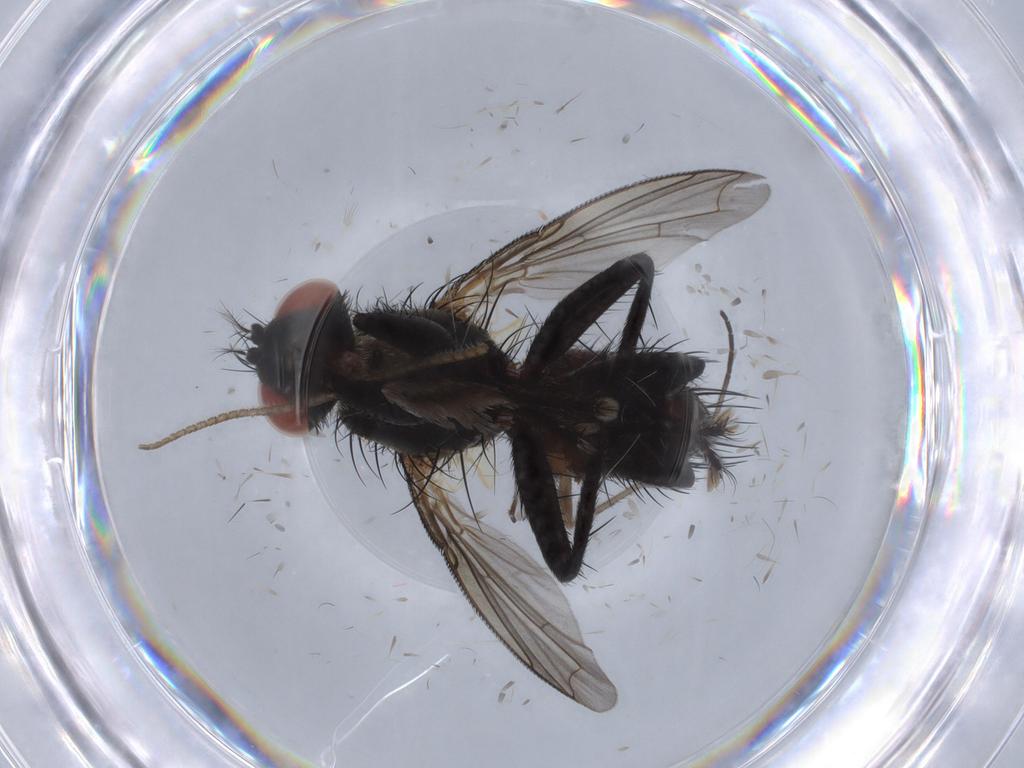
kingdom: Animalia
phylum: Arthropoda
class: Insecta
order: Diptera
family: Sarcophagidae
